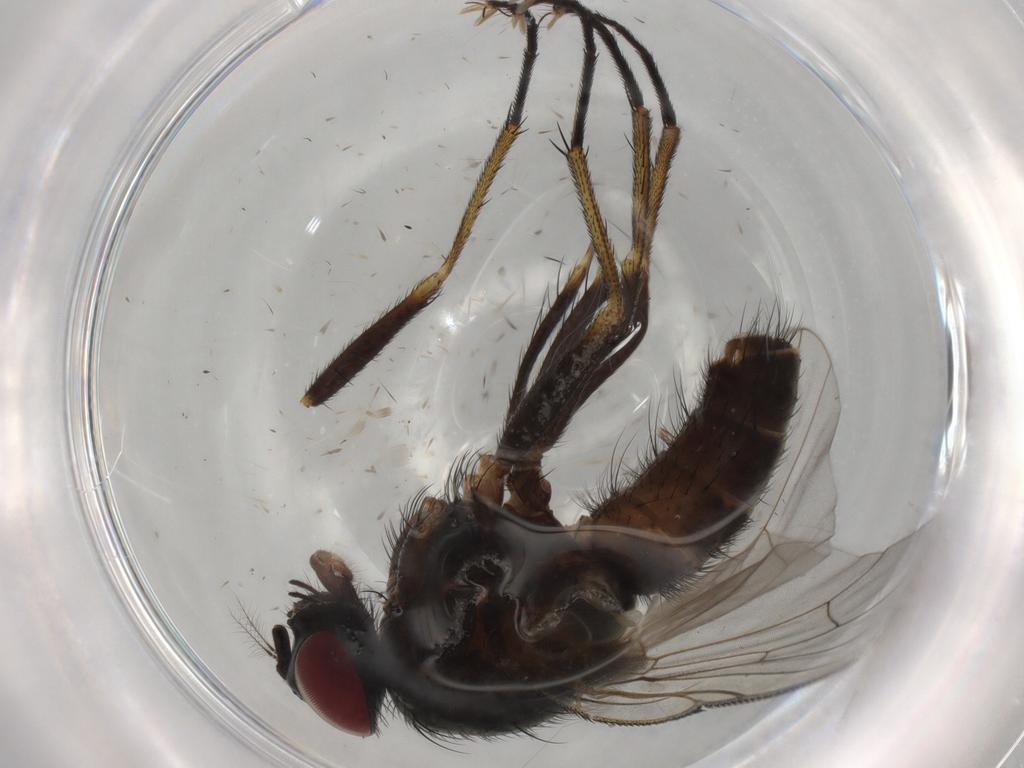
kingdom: Animalia
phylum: Arthropoda
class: Insecta
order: Diptera
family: Muscidae
